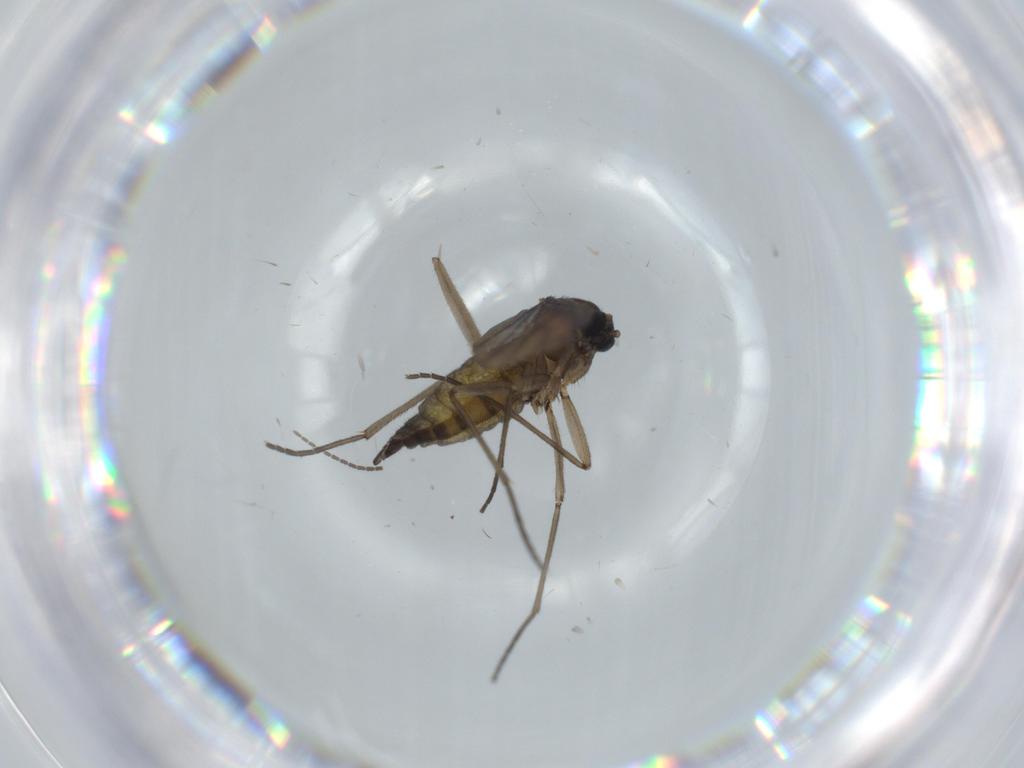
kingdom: Animalia
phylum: Arthropoda
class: Insecta
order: Diptera
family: Sciaridae
